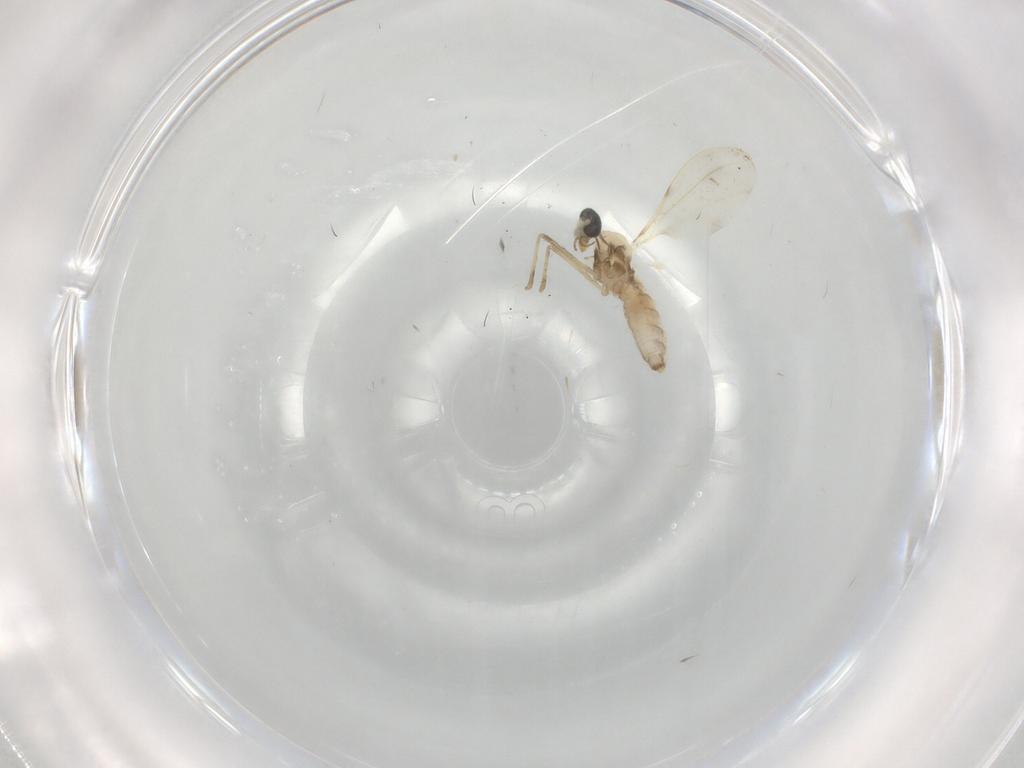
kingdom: Animalia
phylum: Arthropoda
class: Insecta
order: Diptera
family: Cecidomyiidae
